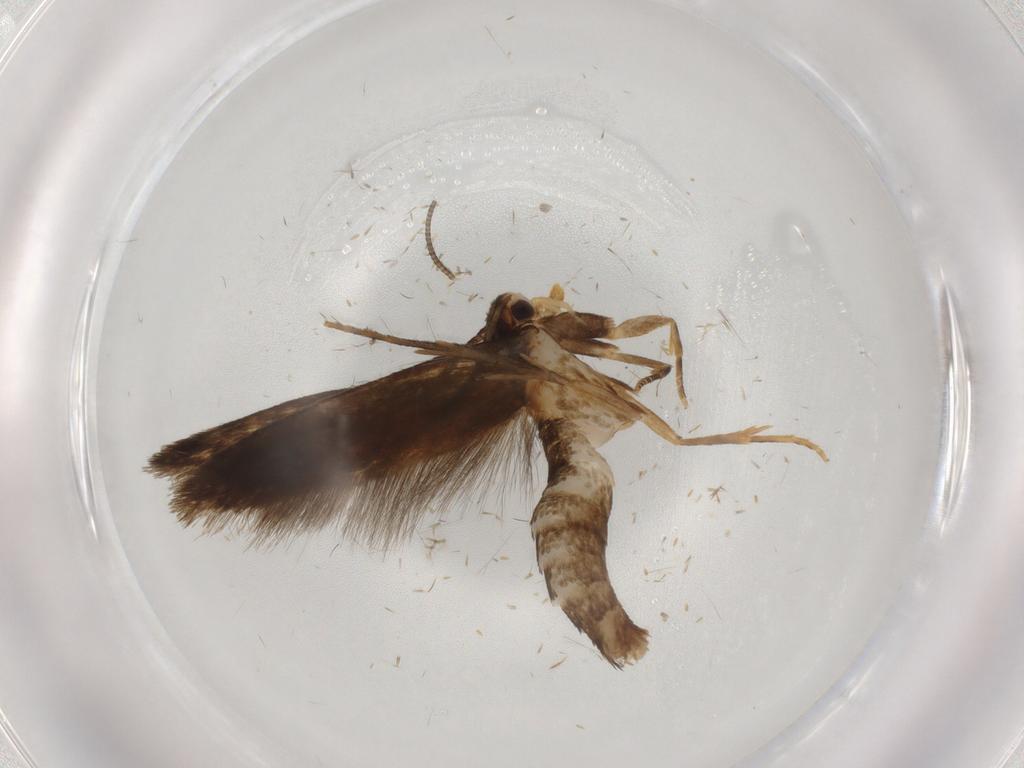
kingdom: Animalia
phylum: Arthropoda
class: Insecta
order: Lepidoptera
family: Tineidae
